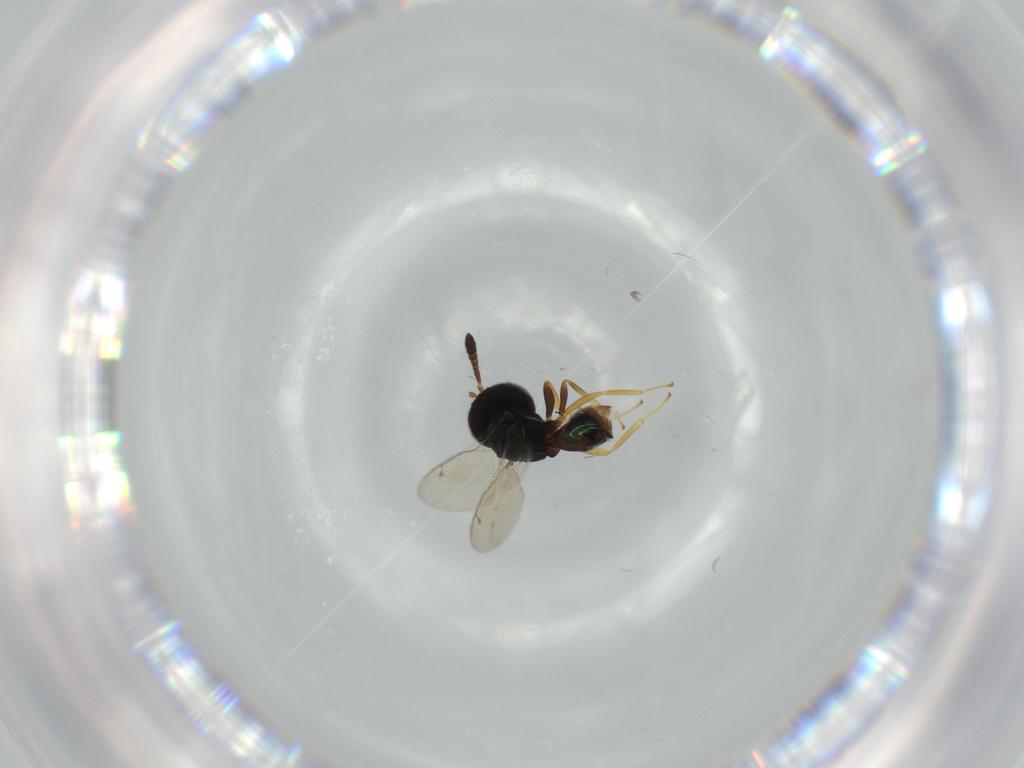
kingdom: Animalia
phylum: Arthropoda
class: Insecta
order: Hymenoptera
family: Pteromalidae
